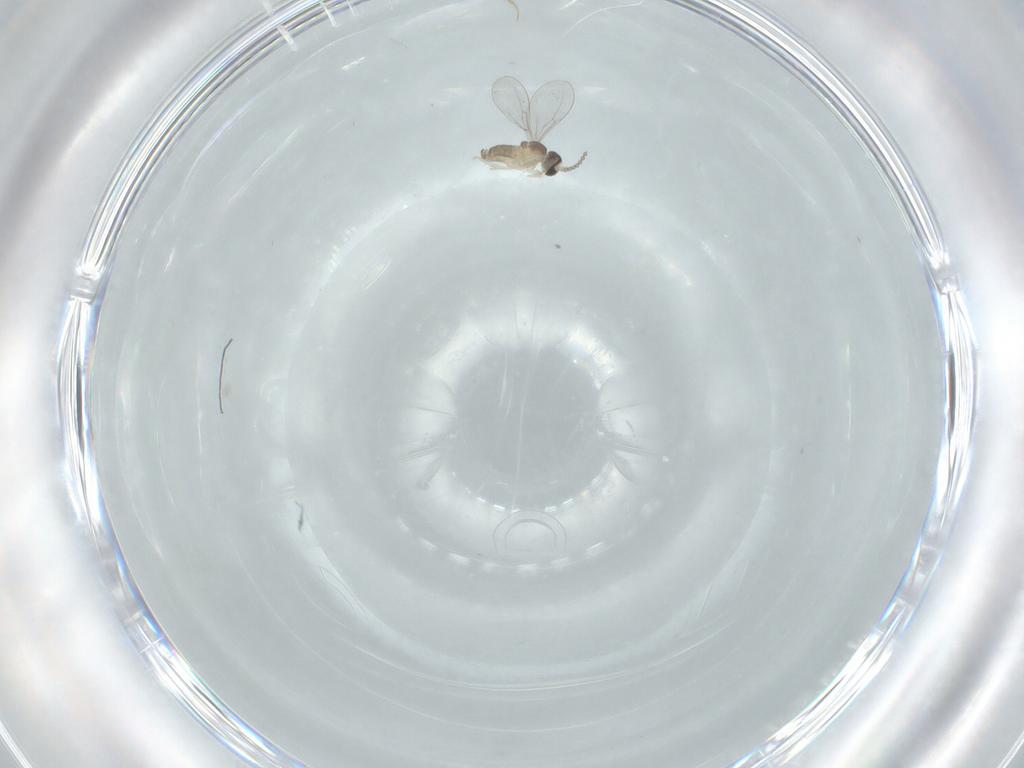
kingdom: Animalia
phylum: Arthropoda
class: Insecta
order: Diptera
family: Cecidomyiidae
